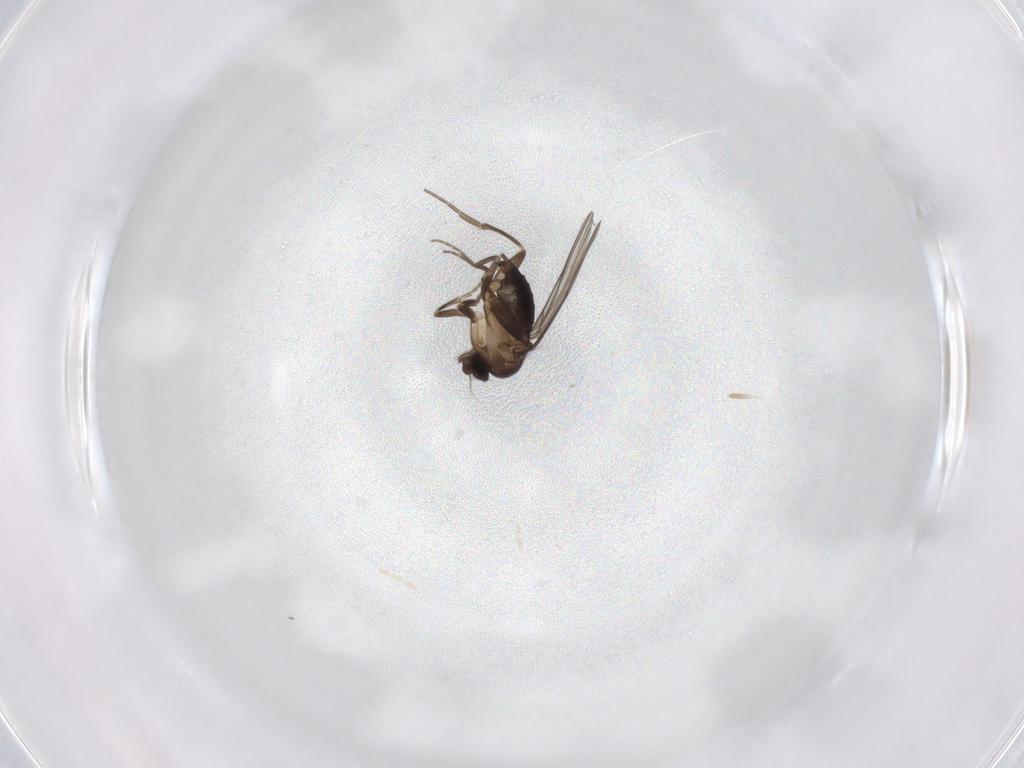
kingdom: Animalia
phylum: Arthropoda
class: Insecta
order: Diptera
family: Cecidomyiidae
